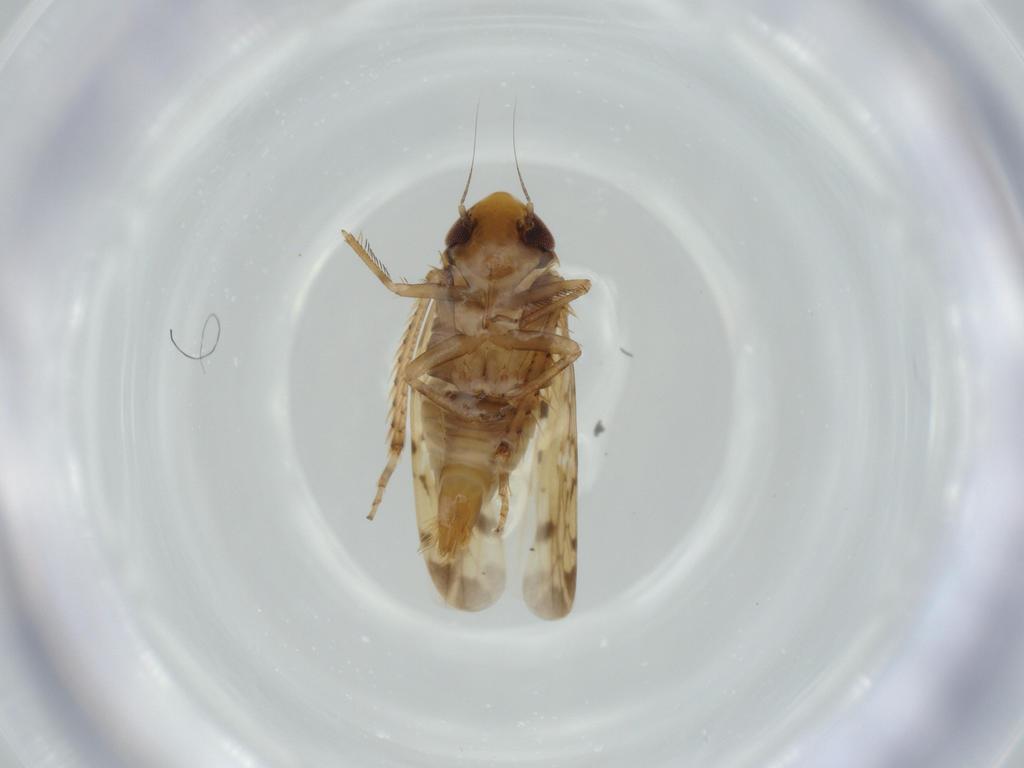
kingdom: Animalia
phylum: Arthropoda
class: Insecta
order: Hemiptera
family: Cicadellidae
